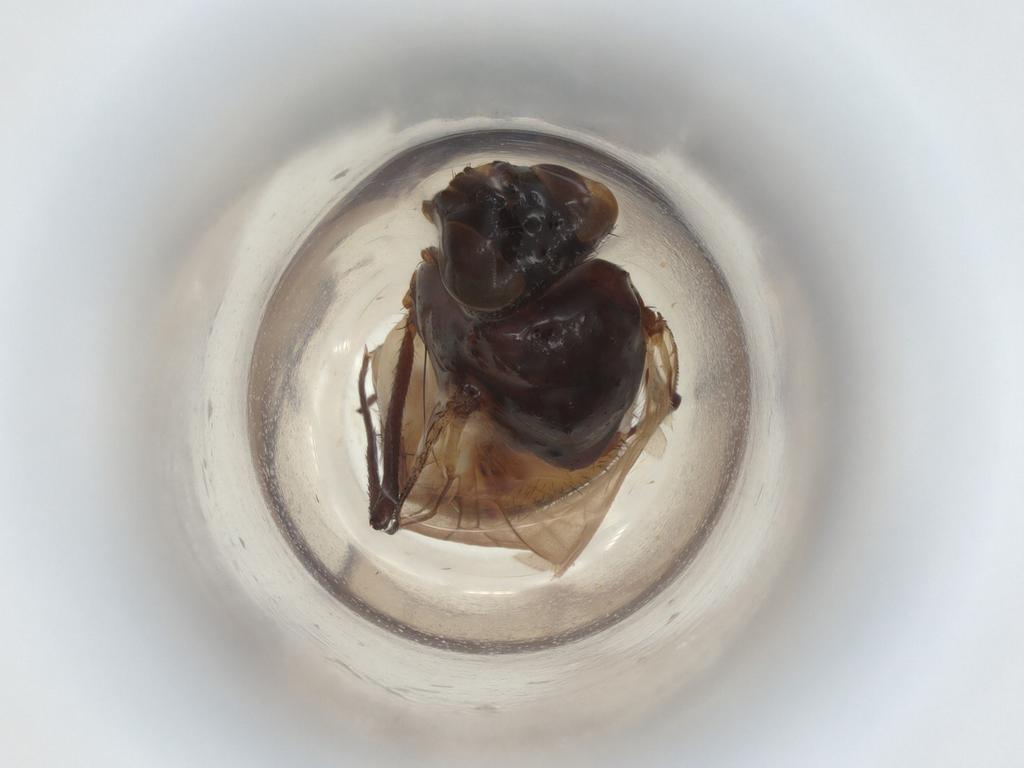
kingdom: Animalia
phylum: Arthropoda
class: Insecta
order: Diptera
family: Anthomyiidae
